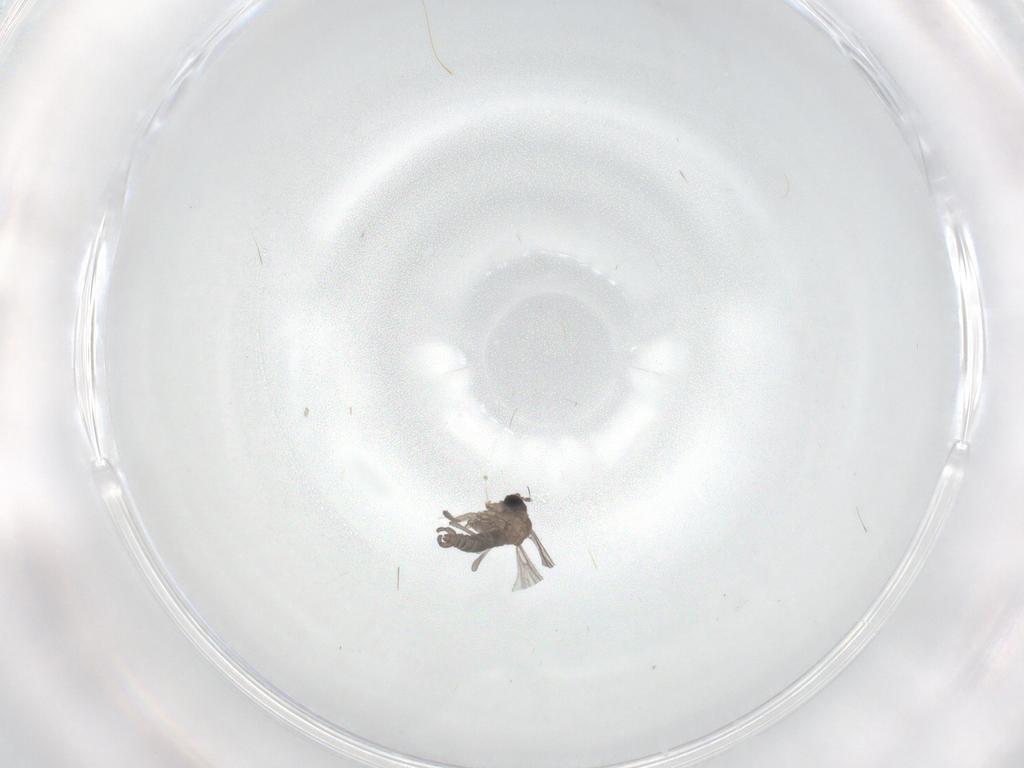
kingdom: Animalia
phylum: Arthropoda
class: Insecta
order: Diptera
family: Sciaridae
